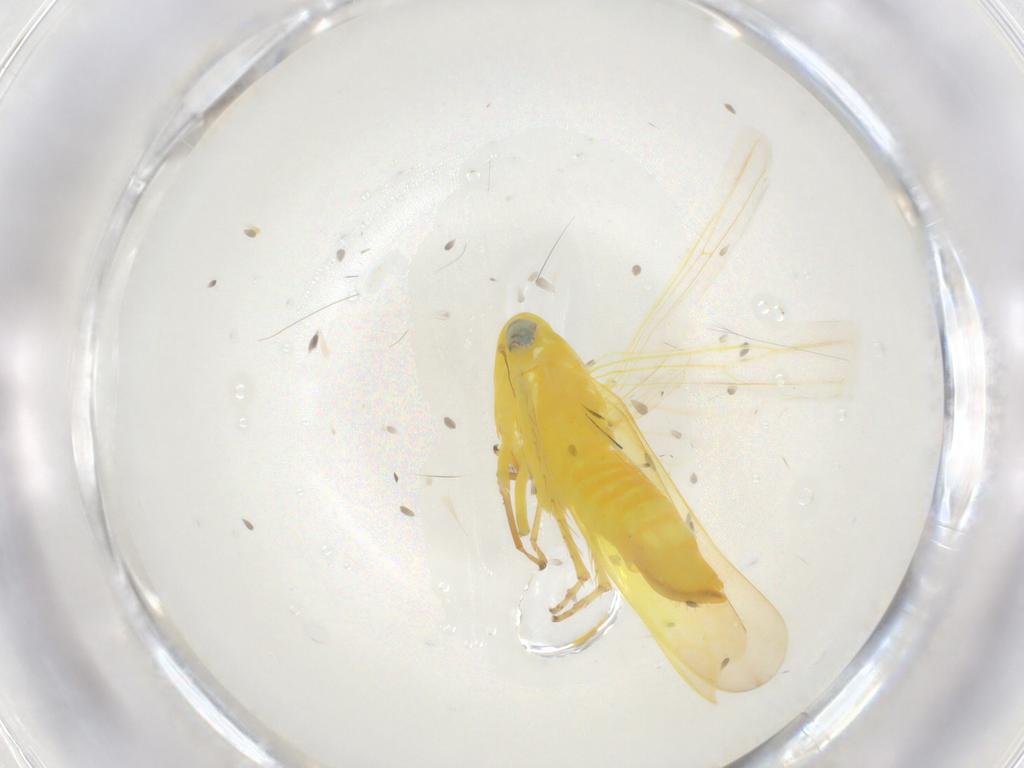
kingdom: Animalia
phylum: Arthropoda
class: Insecta
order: Hemiptera
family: Cicadellidae
